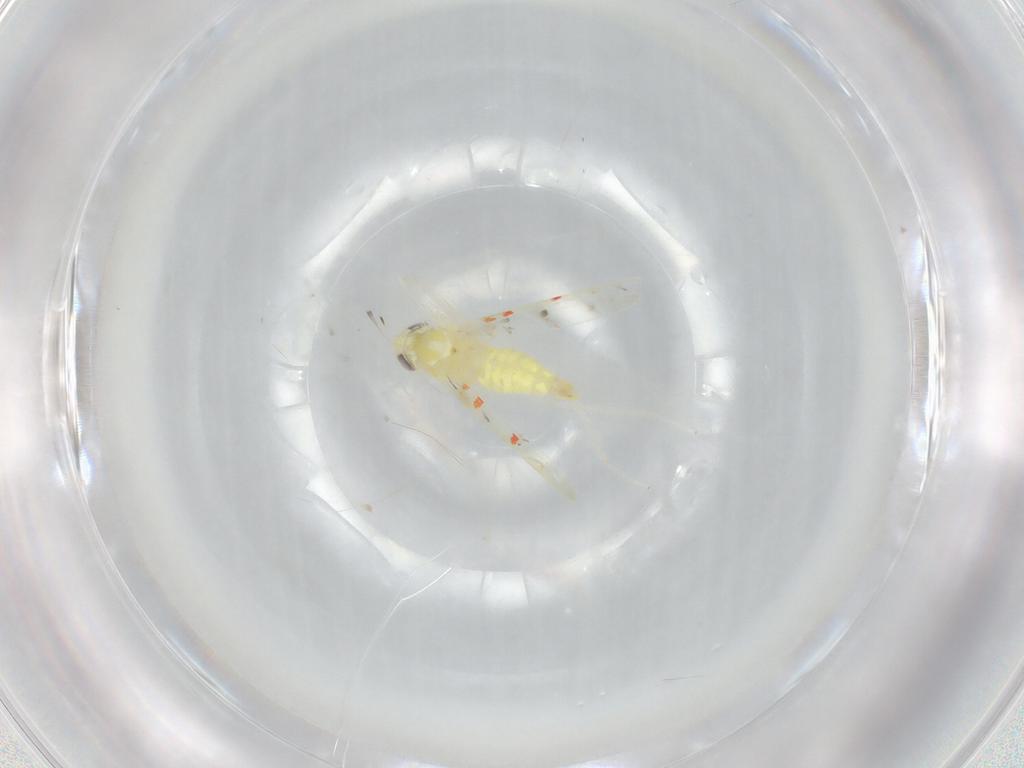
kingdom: Animalia
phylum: Arthropoda
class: Insecta
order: Hemiptera
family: Cicadellidae
